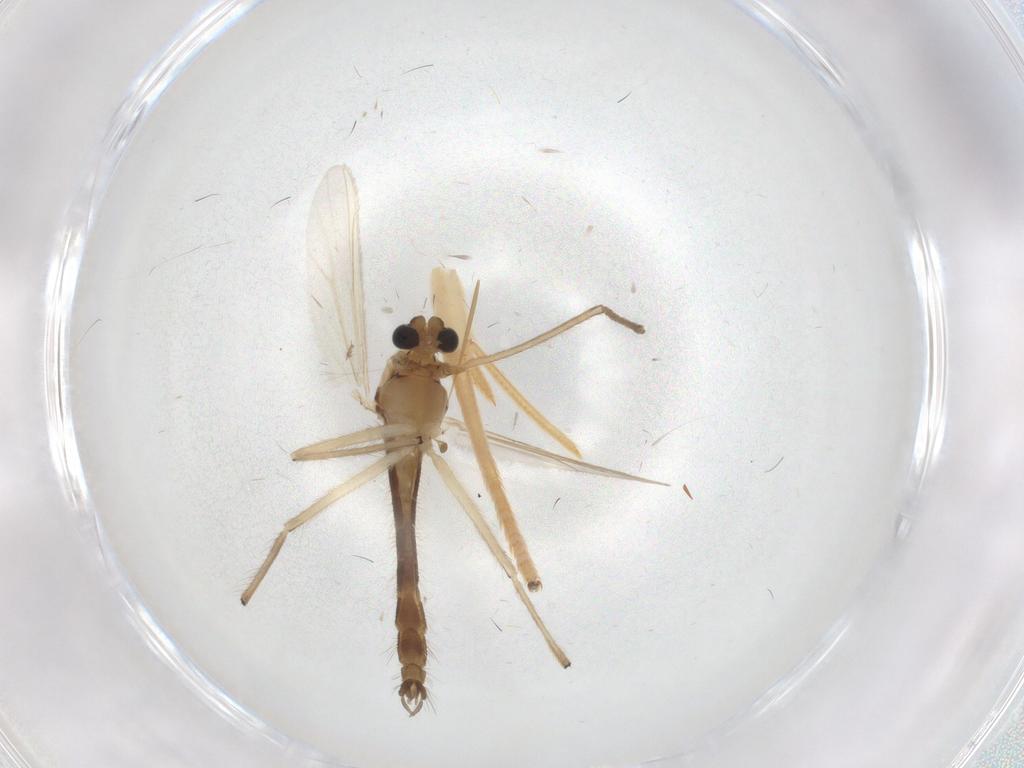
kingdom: Animalia
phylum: Arthropoda
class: Insecta
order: Diptera
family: Chironomidae
